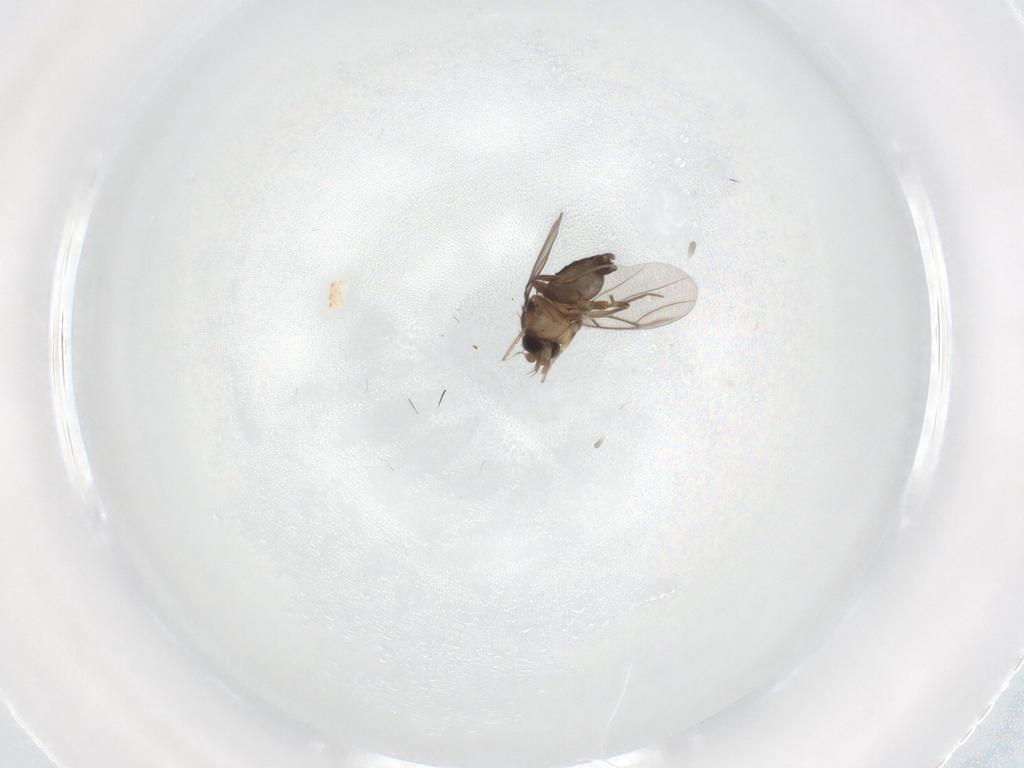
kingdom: Animalia
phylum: Arthropoda
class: Insecta
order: Diptera
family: Phoridae
